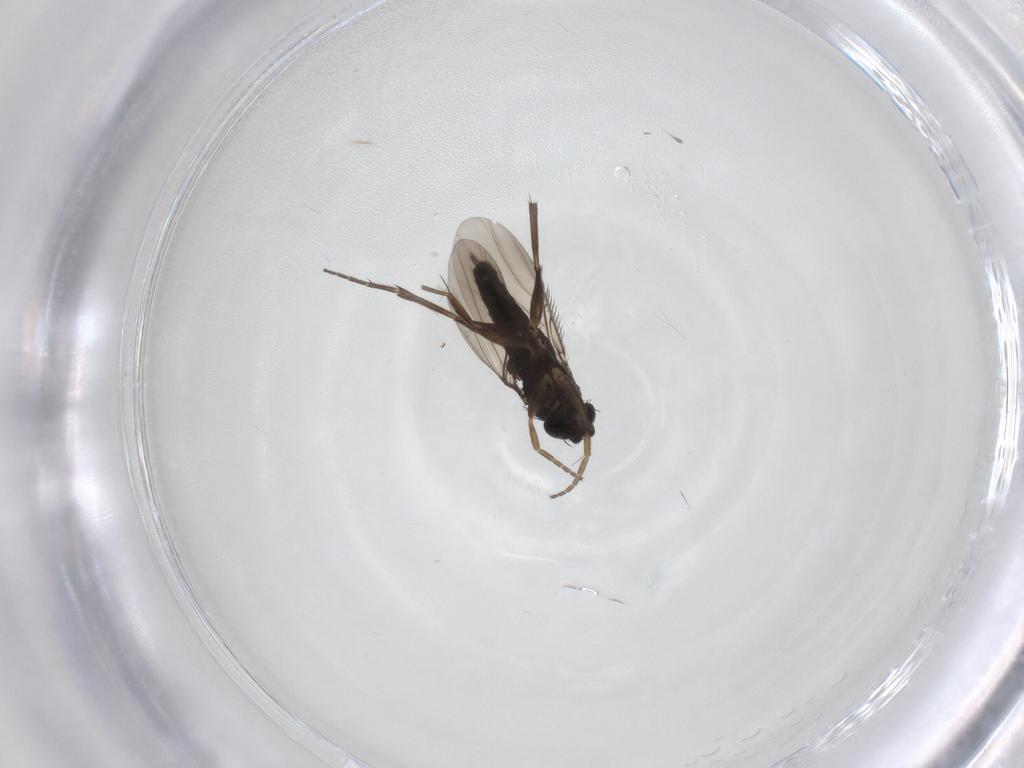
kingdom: Animalia
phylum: Arthropoda
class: Insecta
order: Diptera
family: Phoridae
